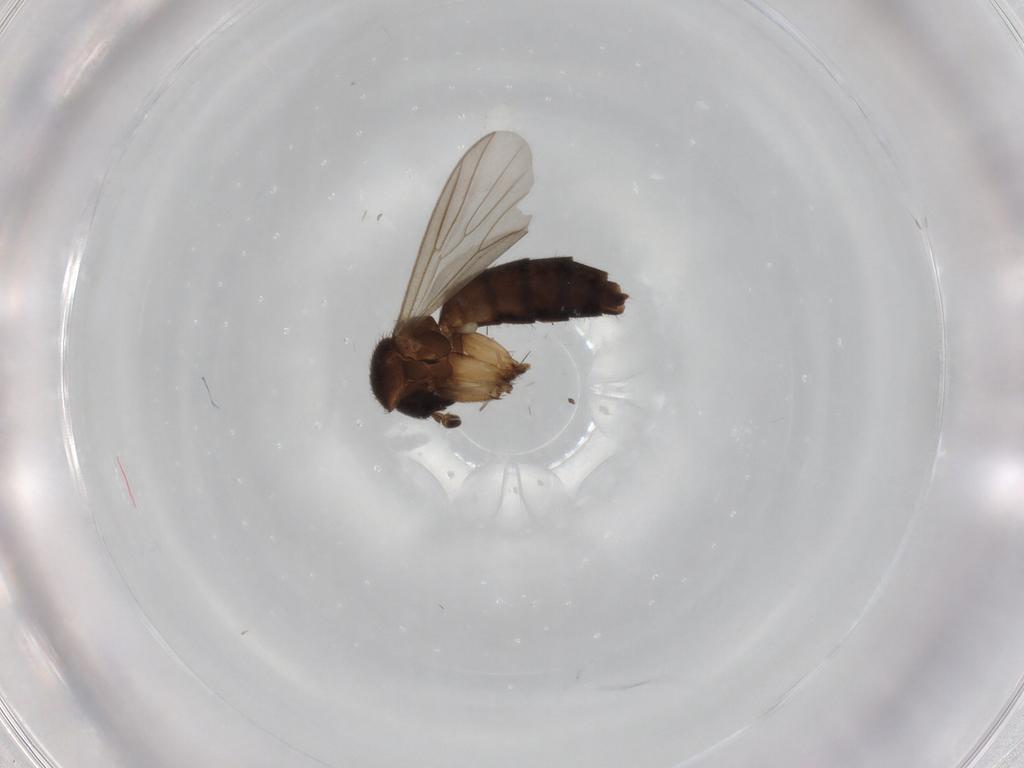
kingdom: Animalia
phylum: Arthropoda
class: Insecta
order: Diptera
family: Mycetophilidae
